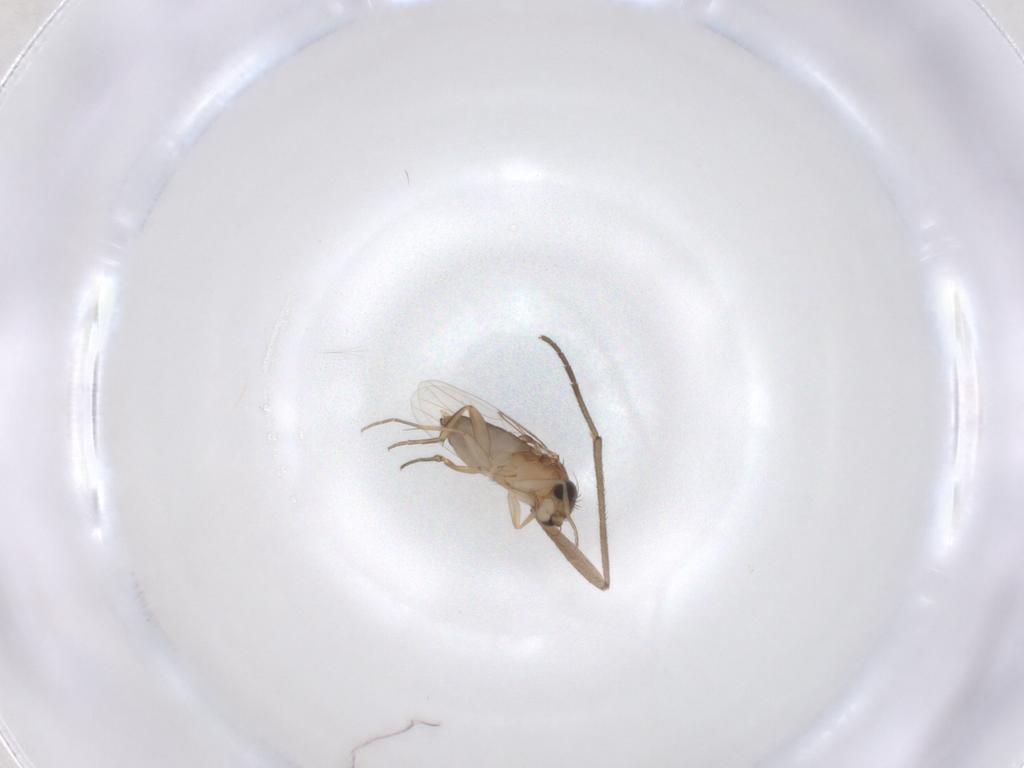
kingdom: Animalia
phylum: Arthropoda
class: Insecta
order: Diptera
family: Phoridae
